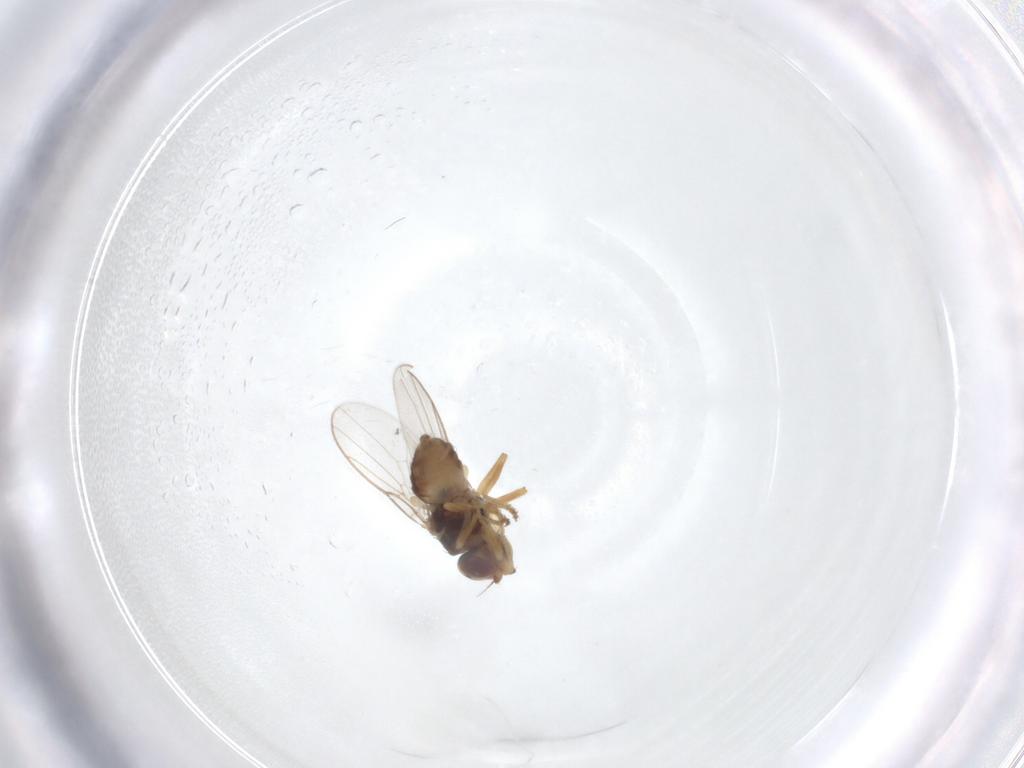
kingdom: Animalia
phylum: Arthropoda
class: Insecta
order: Diptera
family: Chloropidae
